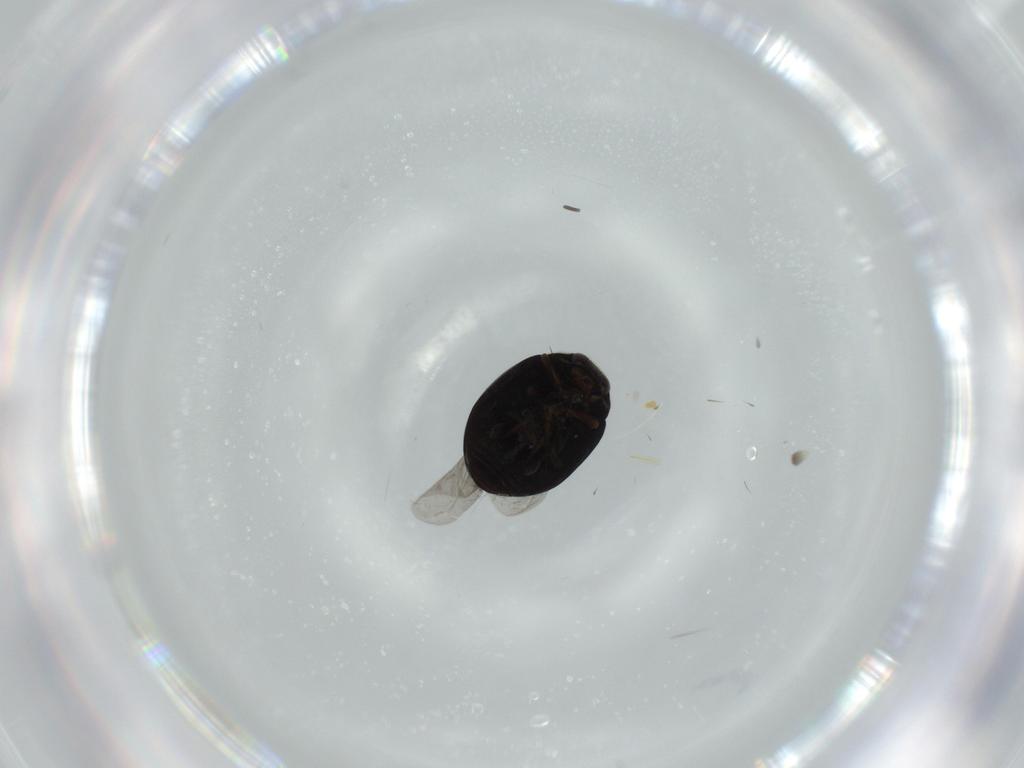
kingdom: Animalia
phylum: Arthropoda
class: Insecta
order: Coleoptera
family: Coccinellidae
